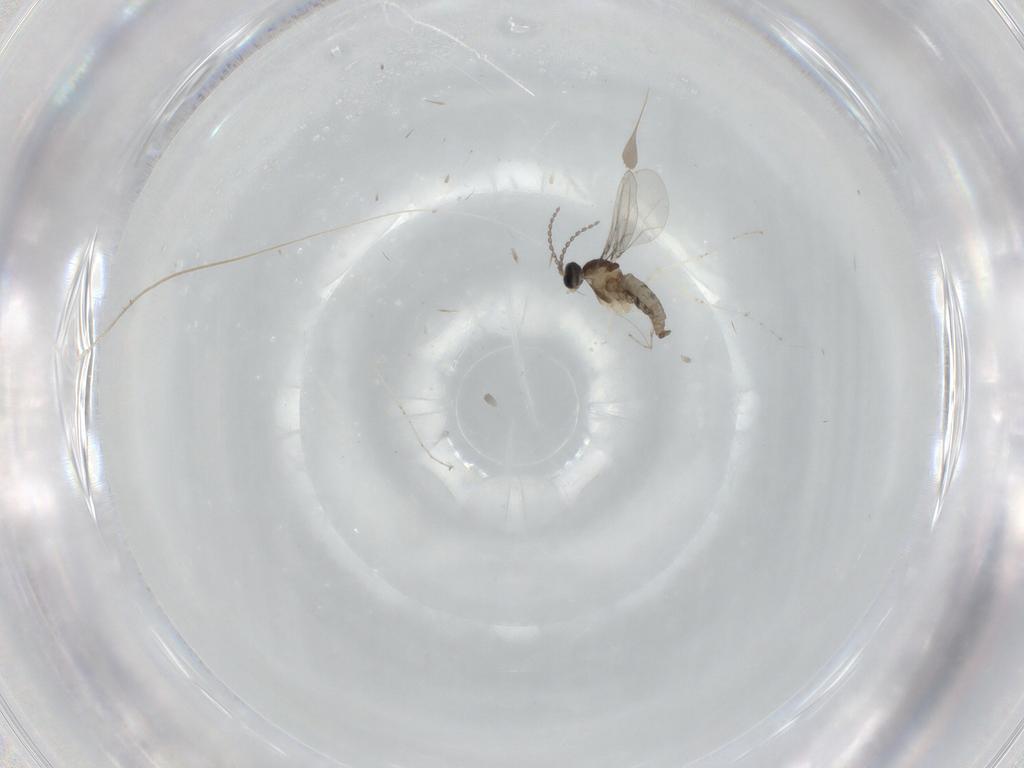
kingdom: Animalia
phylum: Arthropoda
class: Insecta
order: Diptera
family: Cecidomyiidae
